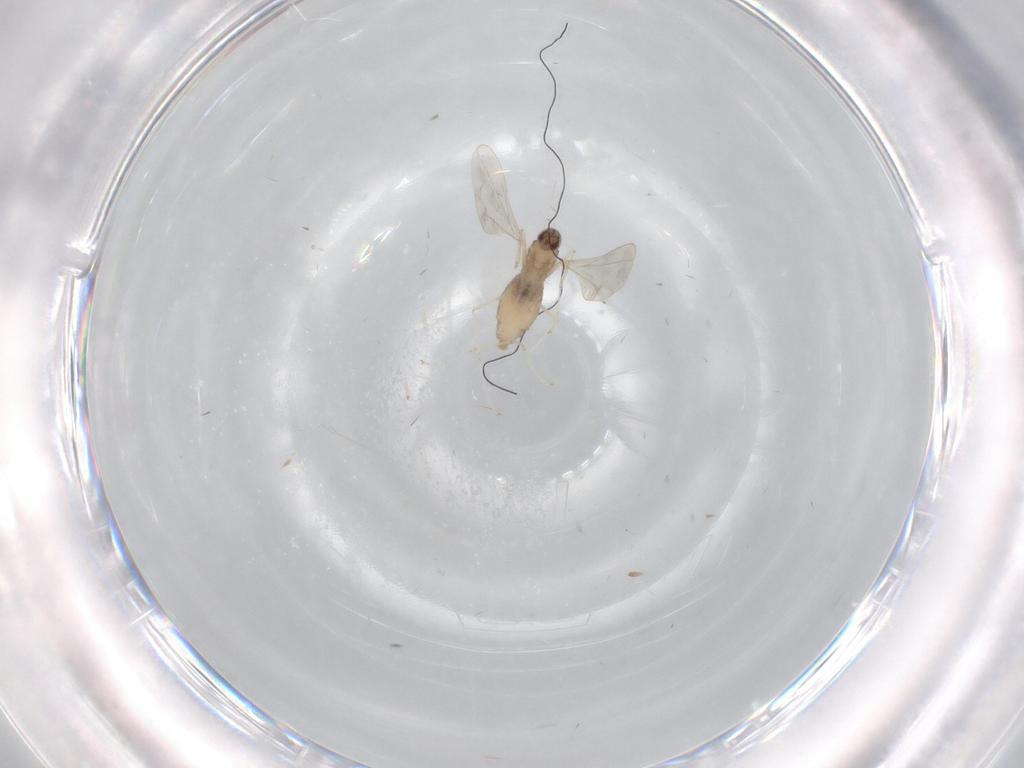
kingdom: Animalia
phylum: Arthropoda
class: Insecta
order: Diptera
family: Cecidomyiidae
